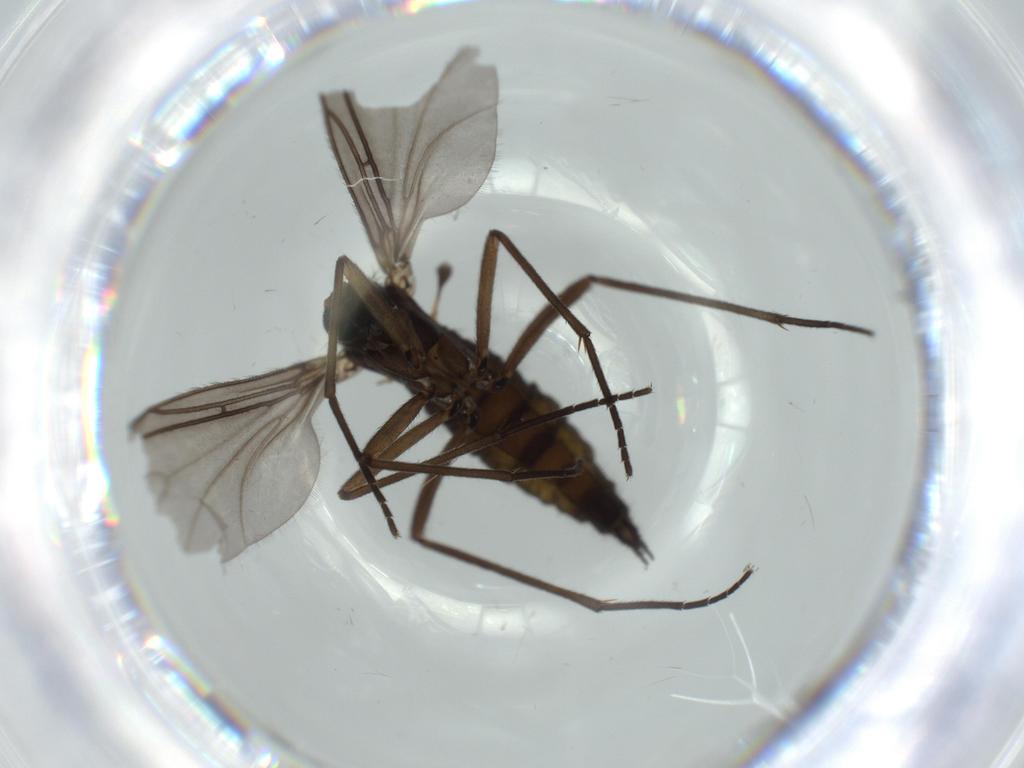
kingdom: Animalia
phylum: Arthropoda
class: Insecta
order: Diptera
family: Sciaridae
